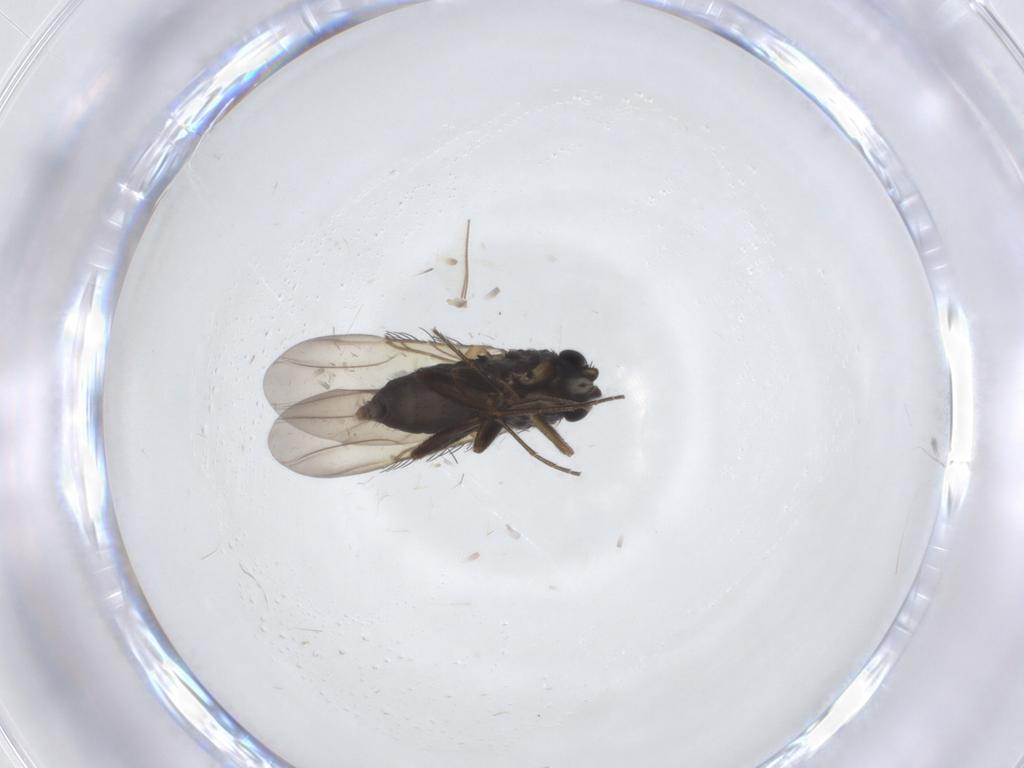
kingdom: Animalia
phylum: Arthropoda
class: Insecta
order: Diptera
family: Phoridae
